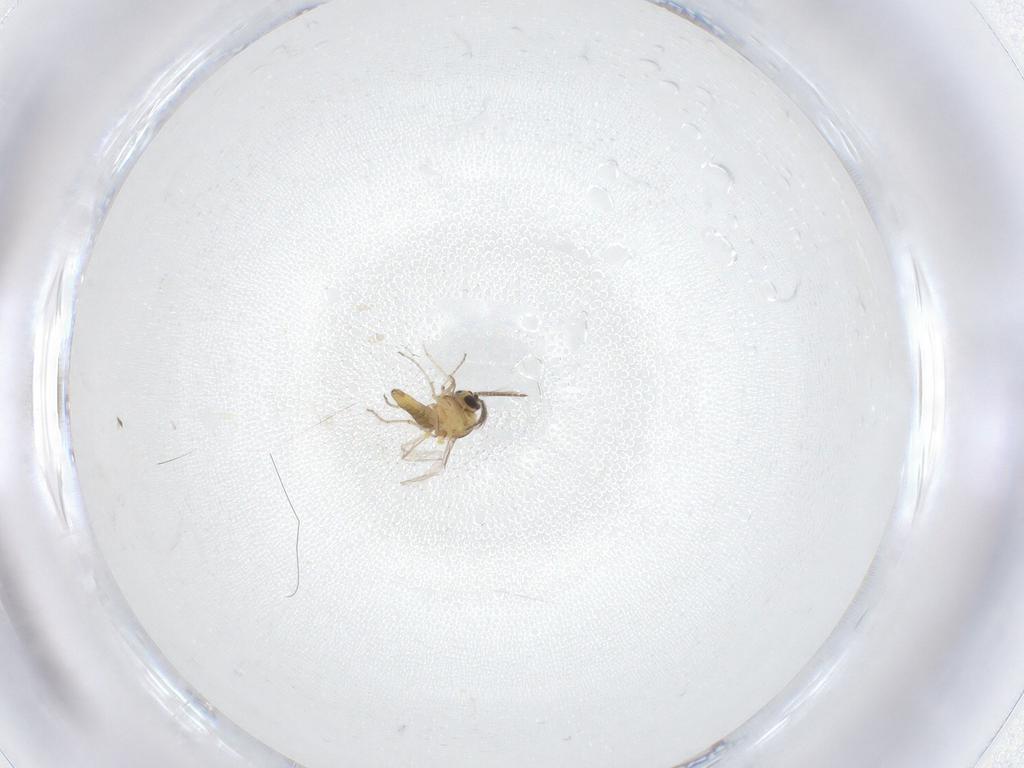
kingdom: Animalia
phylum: Arthropoda
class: Insecta
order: Diptera
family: Ceratopogonidae
